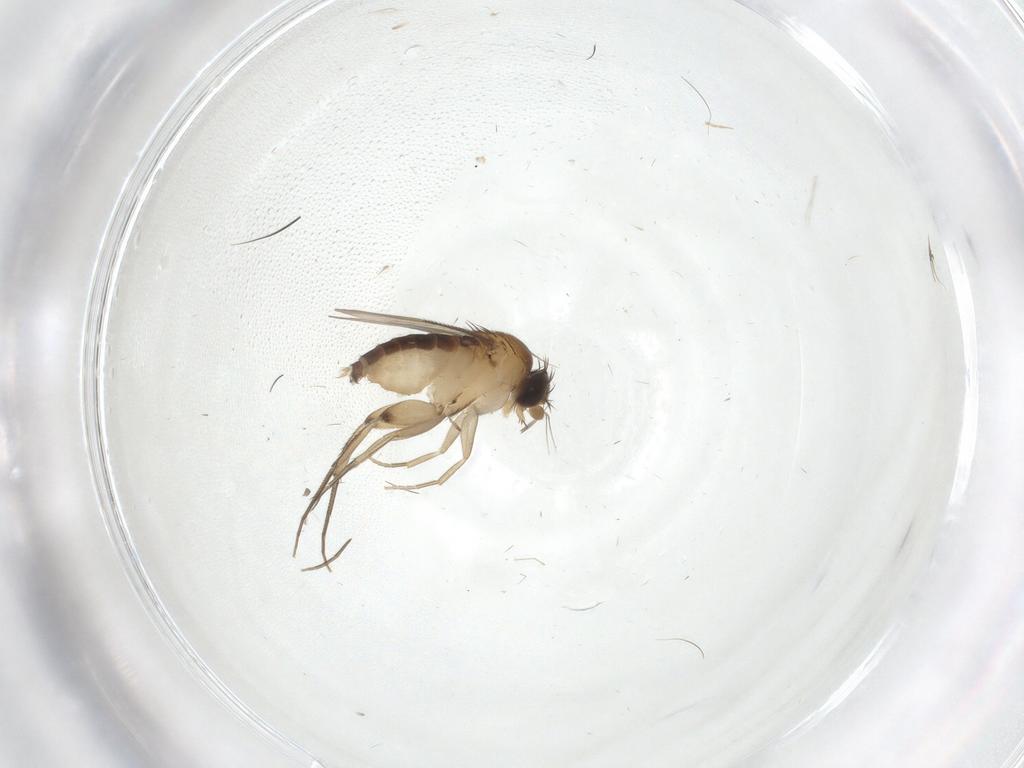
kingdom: Animalia
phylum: Arthropoda
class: Insecta
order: Diptera
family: Phoridae
